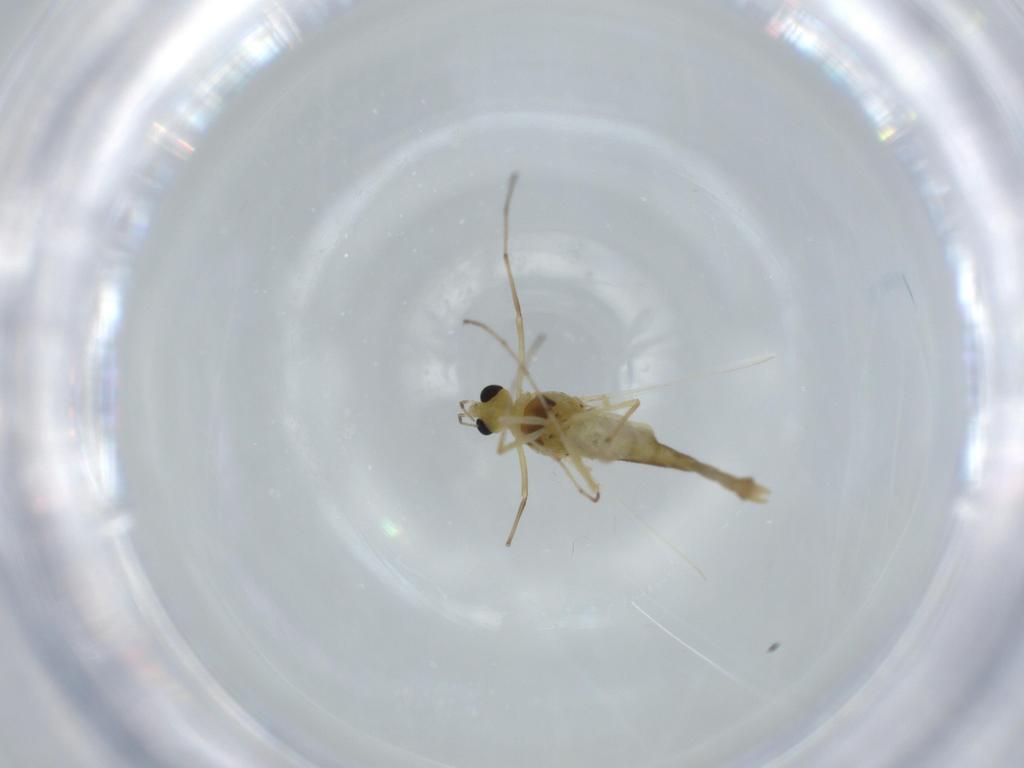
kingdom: Animalia
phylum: Arthropoda
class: Insecta
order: Diptera
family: Chironomidae
